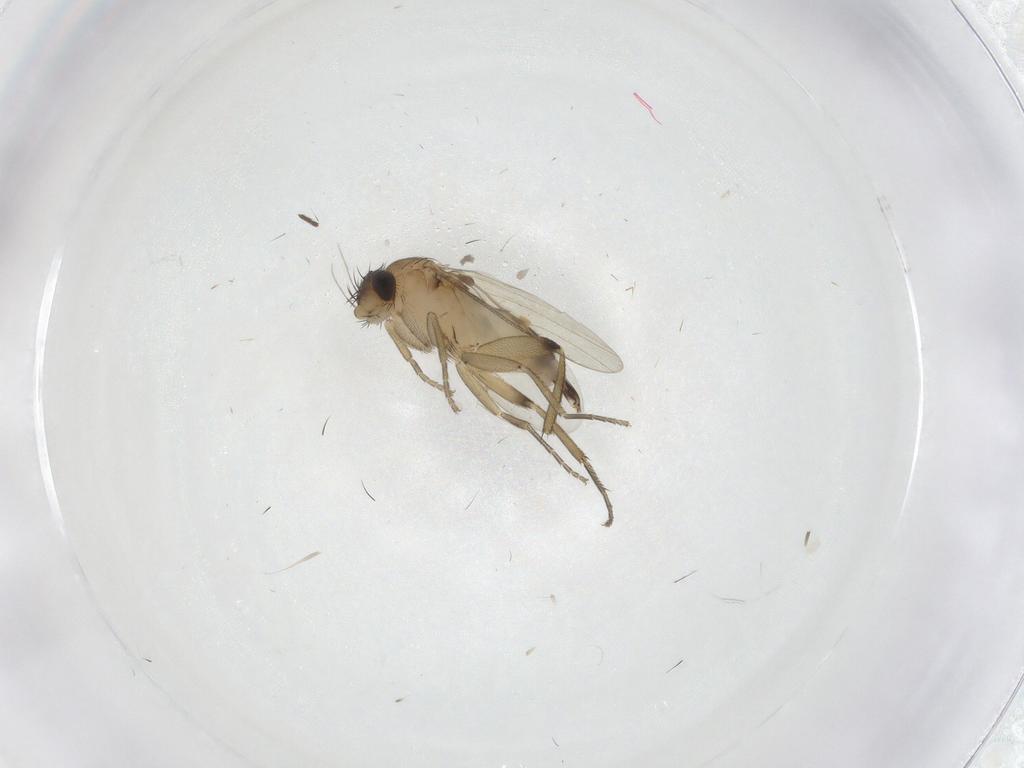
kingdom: Animalia
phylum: Arthropoda
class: Insecta
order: Diptera
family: Phoridae
